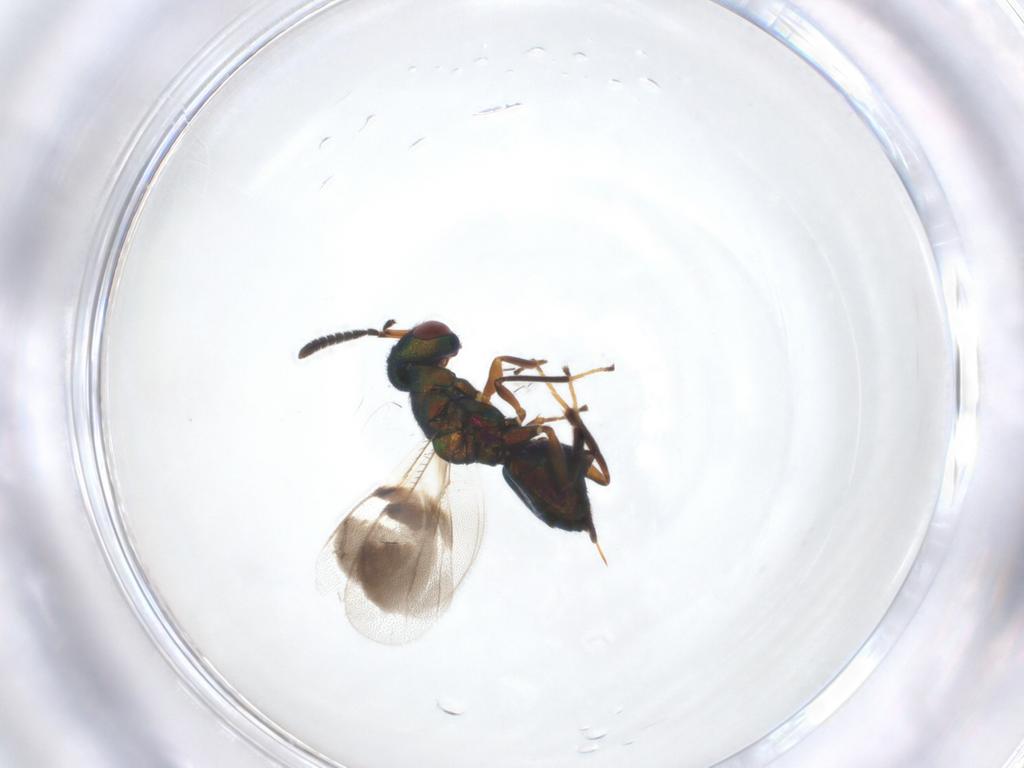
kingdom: Animalia
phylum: Arthropoda
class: Insecta
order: Hymenoptera
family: Pteromalidae
